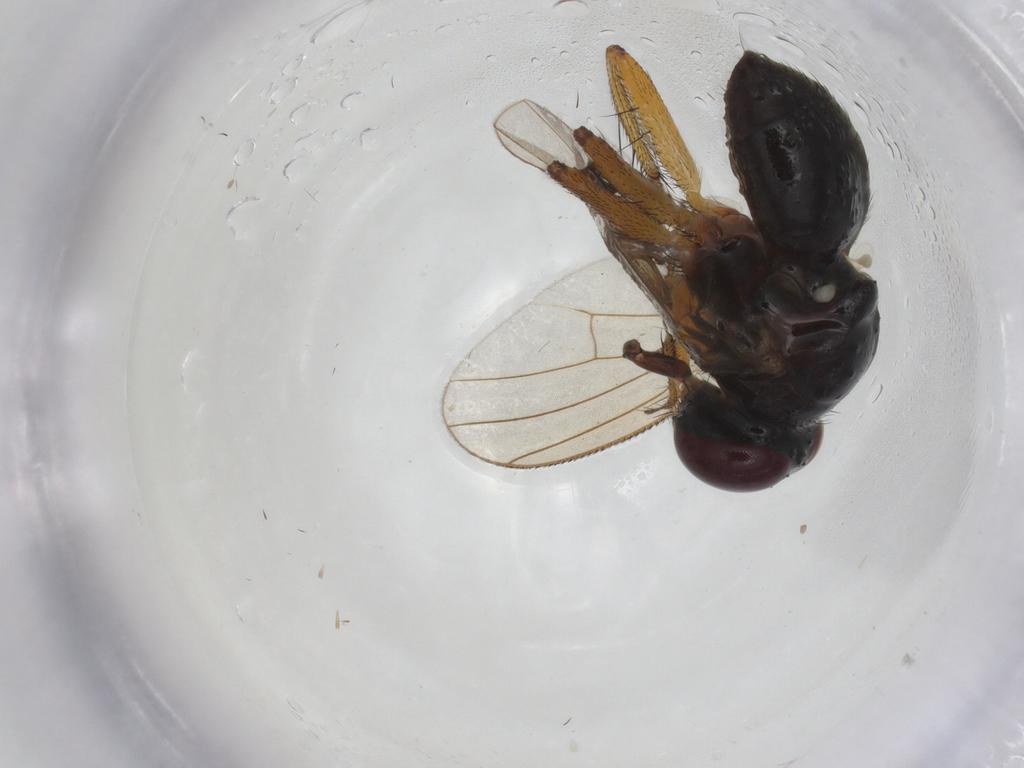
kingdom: Animalia
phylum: Arthropoda
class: Insecta
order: Diptera
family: Muscidae
